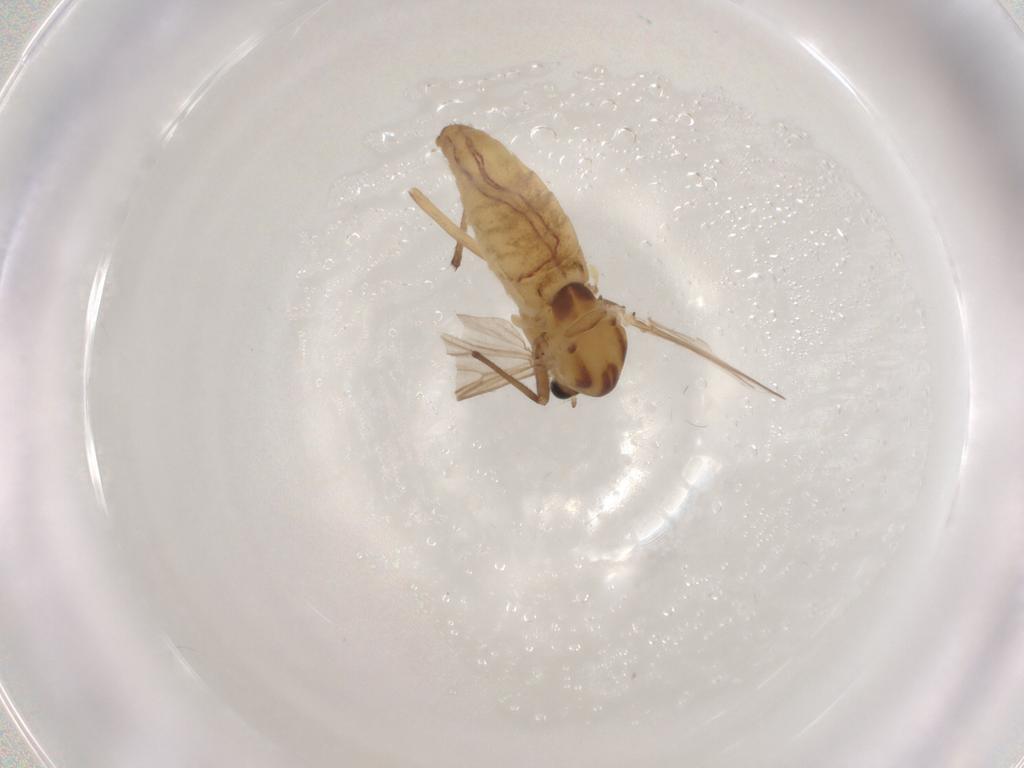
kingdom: Animalia
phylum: Arthropoda
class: Insecta
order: Diptera
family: Chironomidae
